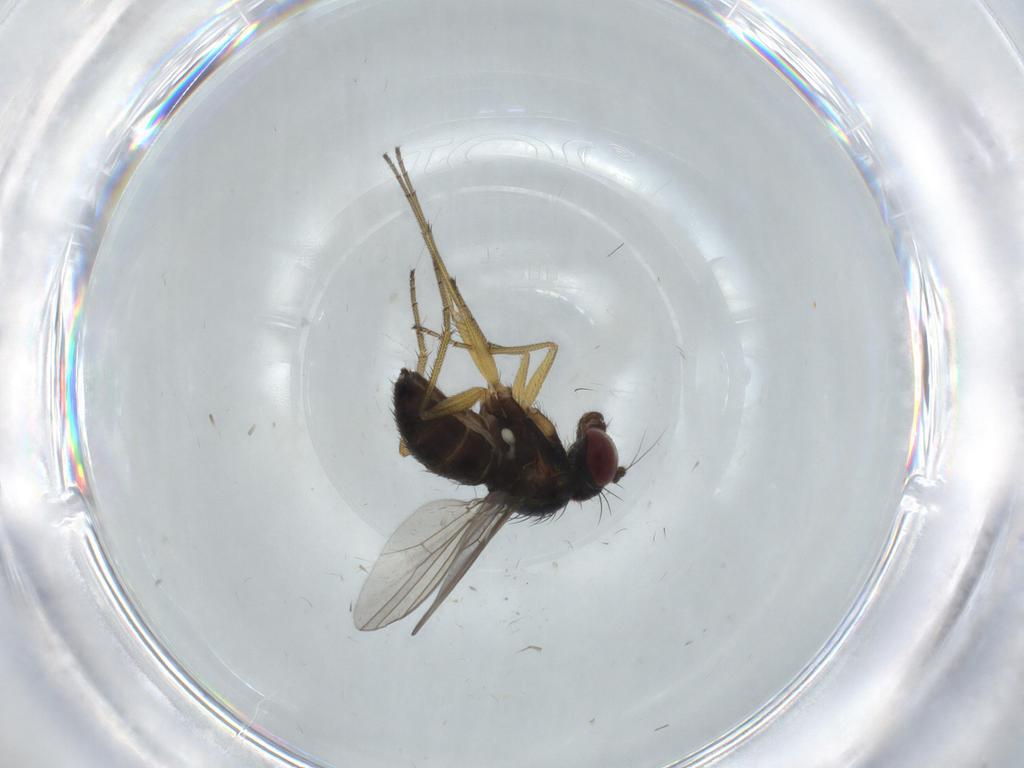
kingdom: Animalia
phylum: Arthropoda
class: Insecta
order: Diptera
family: Dolichopodidae
